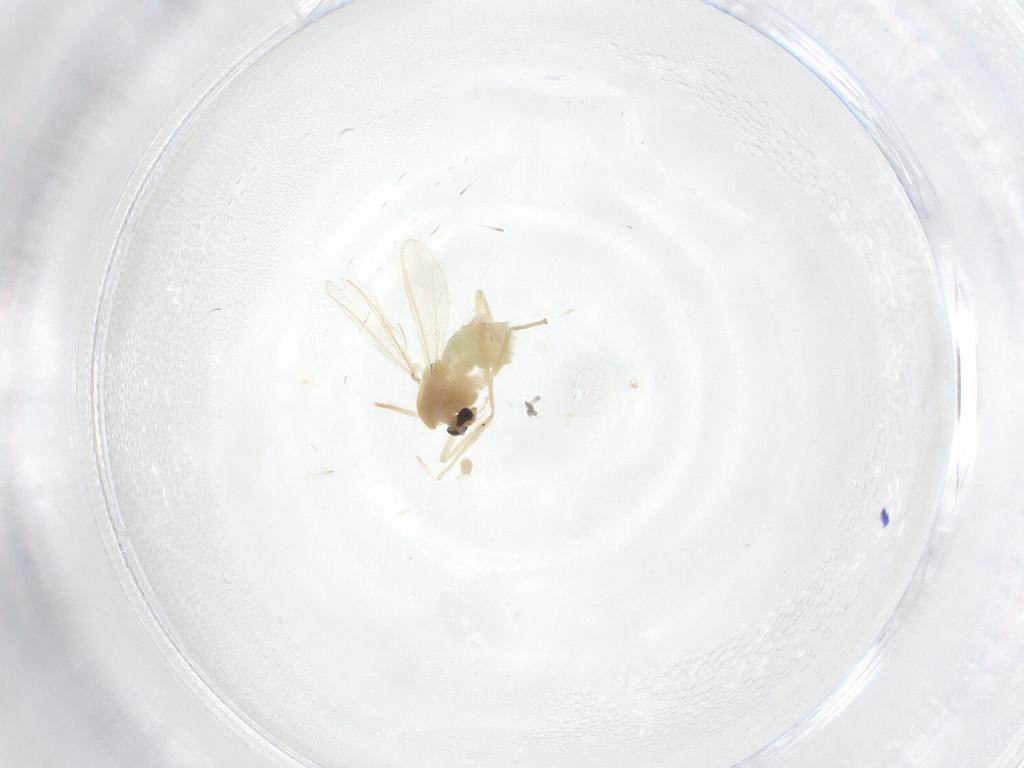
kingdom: Animalia
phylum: Arthropoda
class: Insecta
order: Diptera
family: Chironomidae
